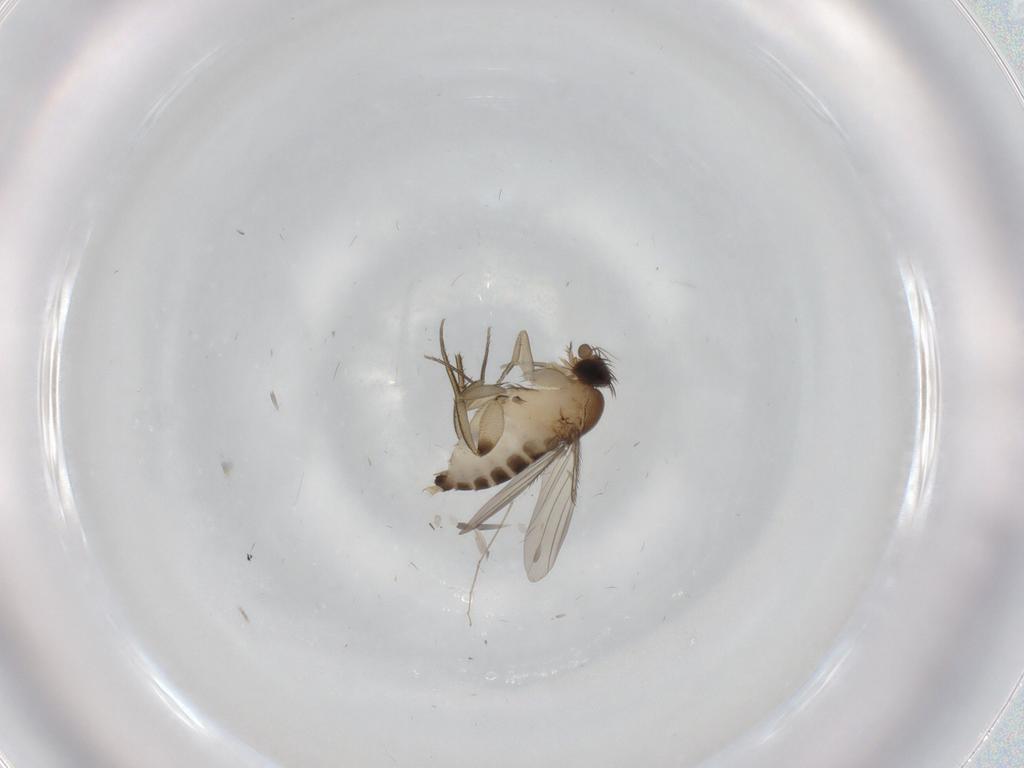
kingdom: Animalia
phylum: Arthropoda
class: Insecta
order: Diptera
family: Phoridae
